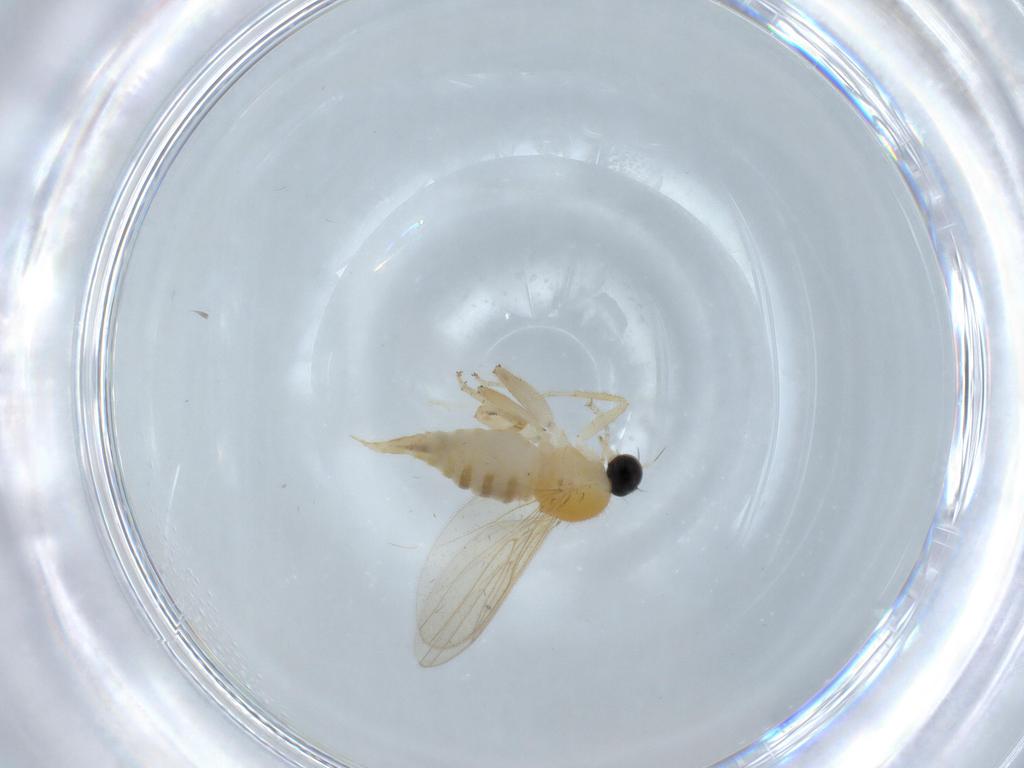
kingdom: Animalia
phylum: Arthropoda
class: Insecta
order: Diptera
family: Cecidomyiidae
